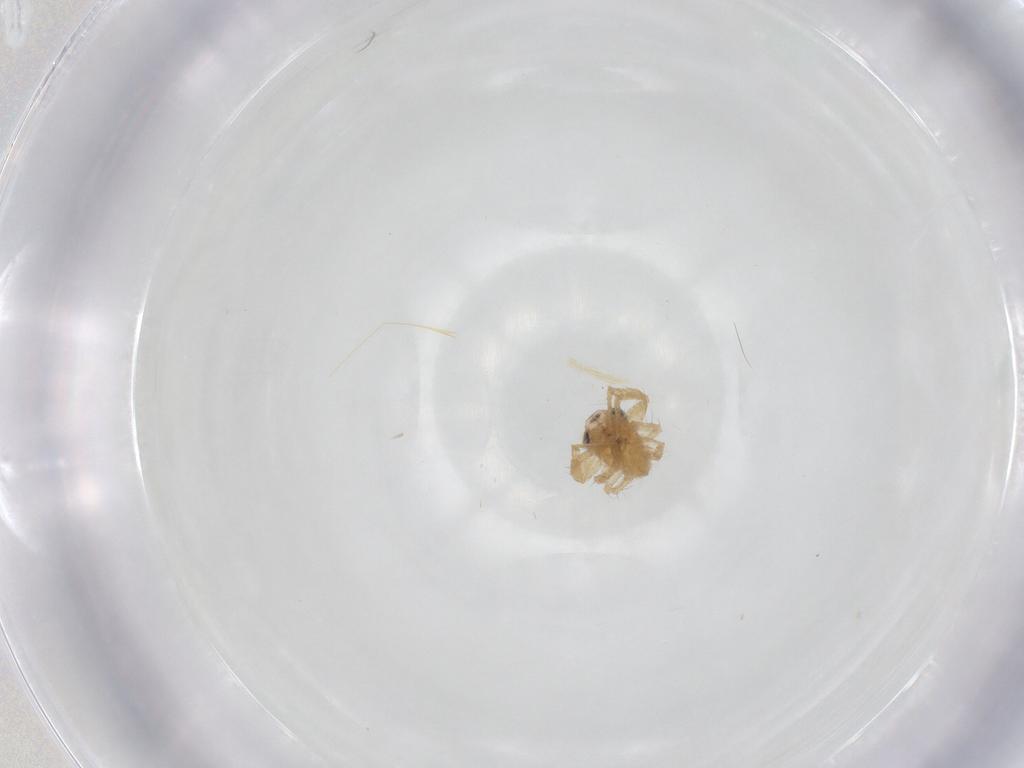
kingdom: Animalia
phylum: Arthropoda
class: Arachnida
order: Araneae
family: Thomisidae
